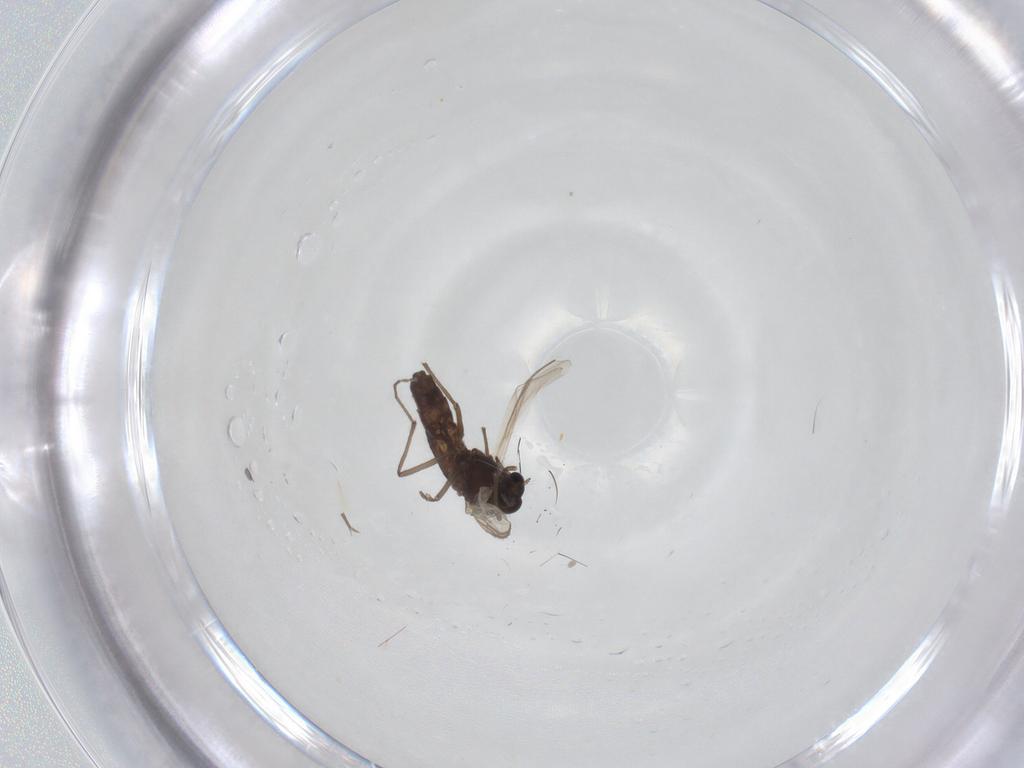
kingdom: Animalia
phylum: Arthropoda
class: Insecta
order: Diptera
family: Chironomidae
